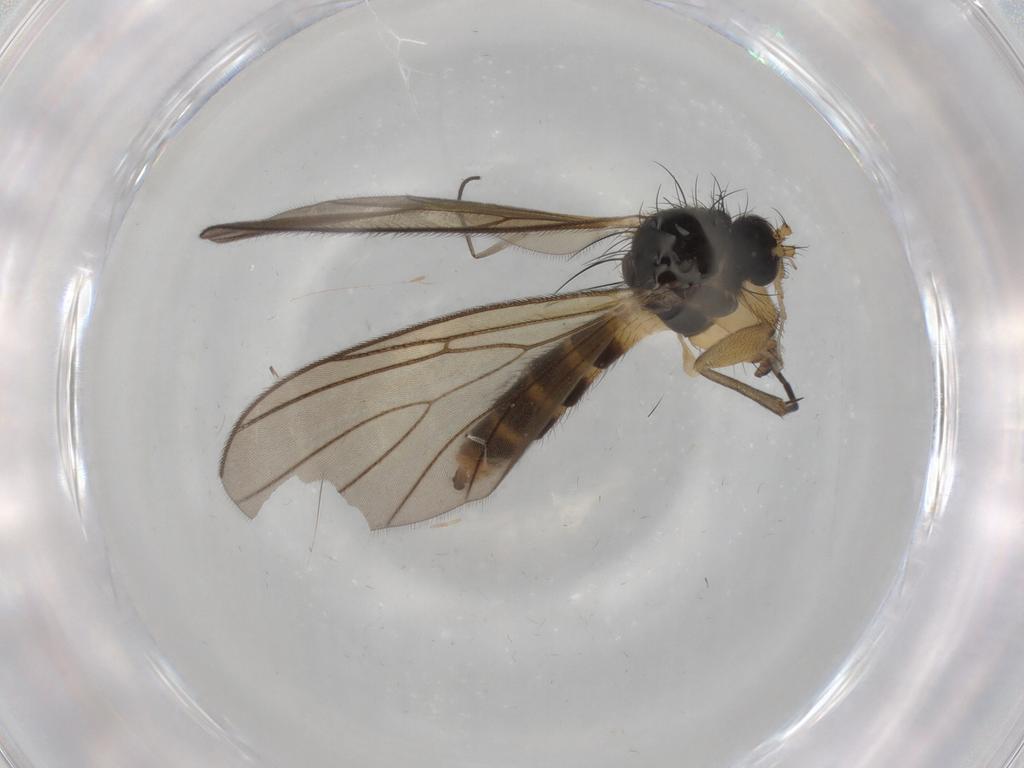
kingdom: Animalia
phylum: Arthropoda
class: Insecta
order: Diptera
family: Mycetophilidae
